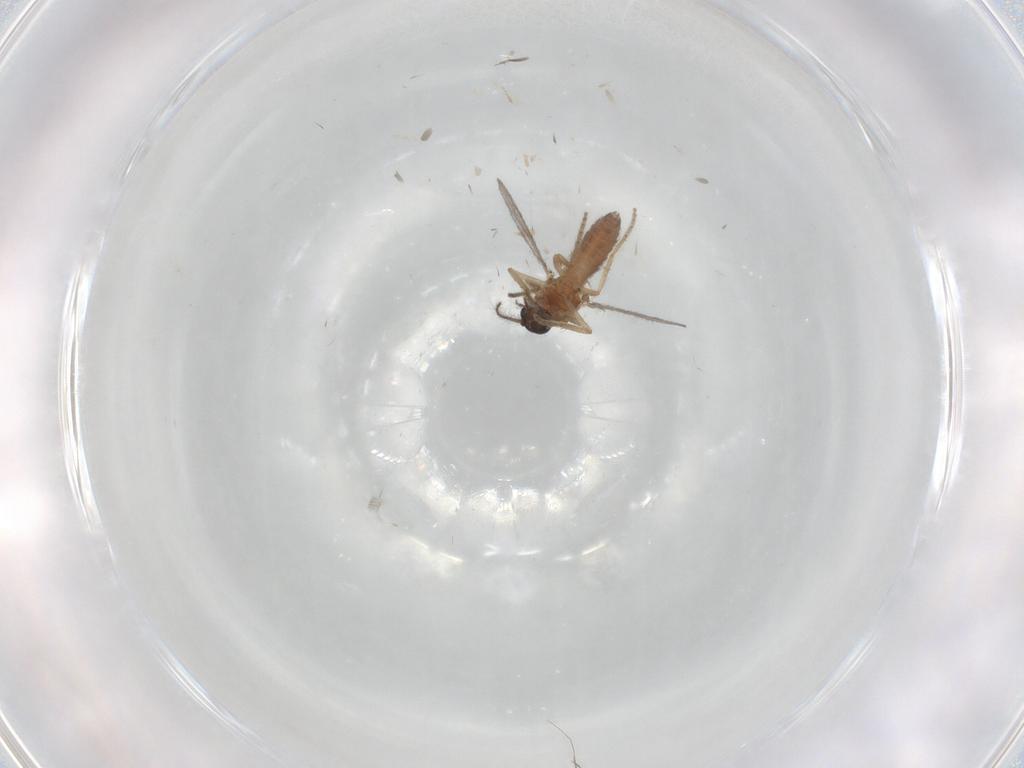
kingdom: Animalia
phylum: Arthropoda
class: Insecta
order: Diptera
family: Ceratopogonidae
